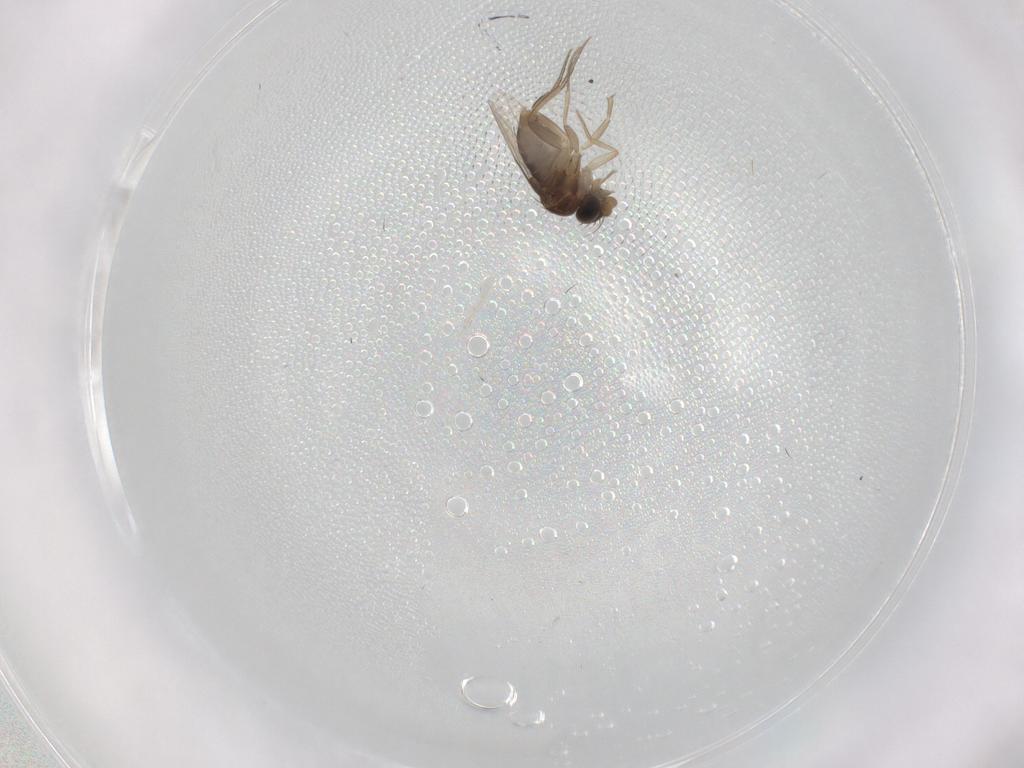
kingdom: Animalia
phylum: Arthropoda
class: Insecta
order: Diptera
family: Cecidomyiidae
